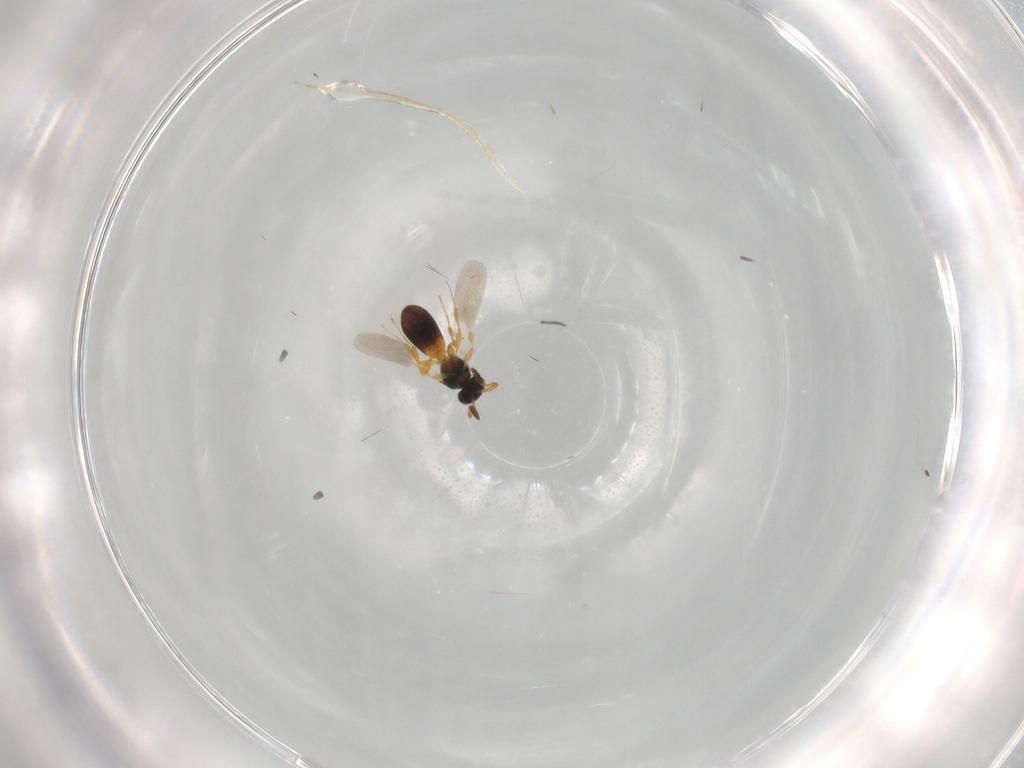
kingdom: Animalia
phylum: Arthropoda
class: Insecta
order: Hymenoptera
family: Platygastridae
